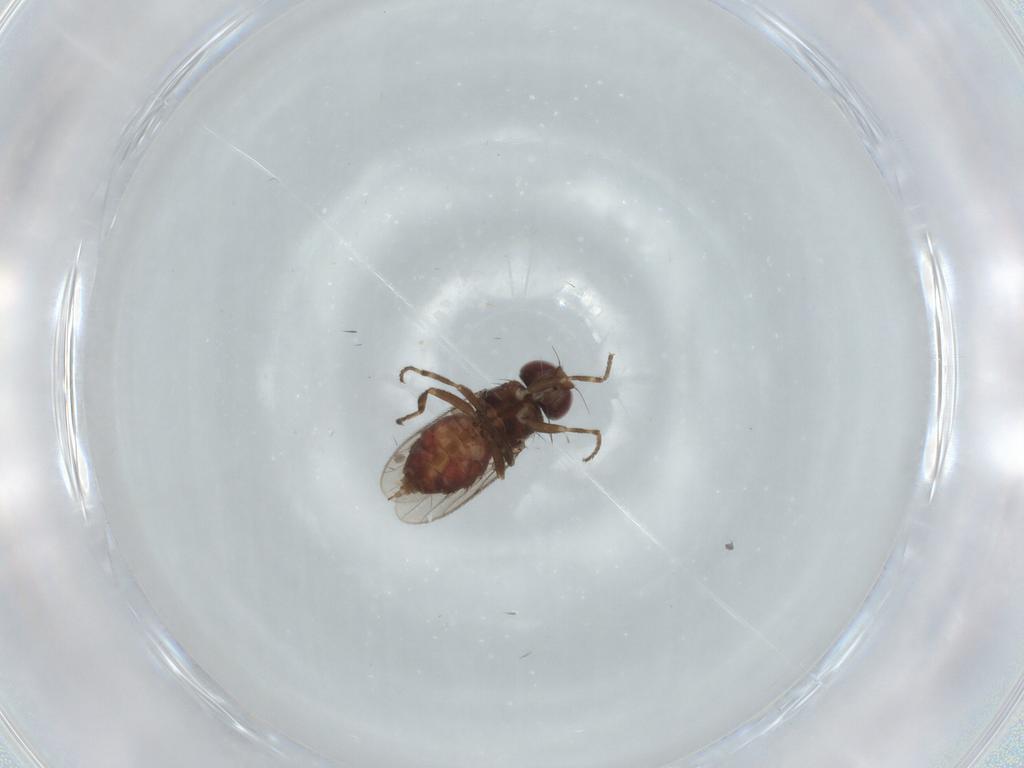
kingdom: Animalia
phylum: Arthropoda
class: Insecta
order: Diptera
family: Chloropidae
